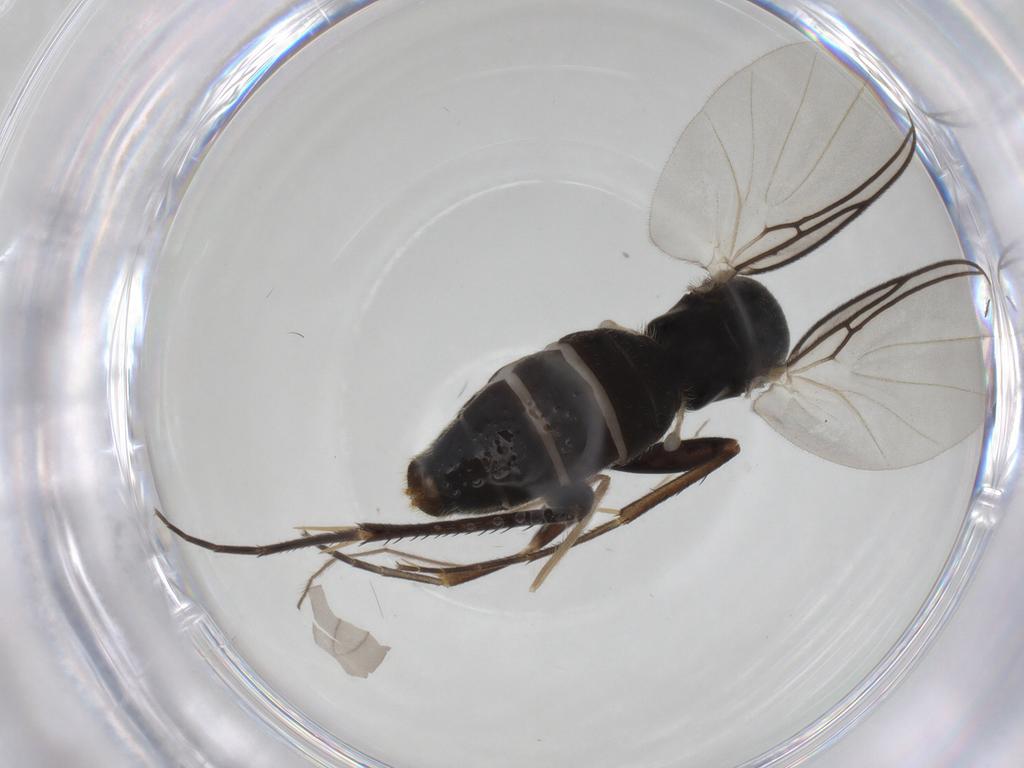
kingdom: Animalia
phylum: Arthropoda
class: Insecta
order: Diptera
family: Mycetophilidae
